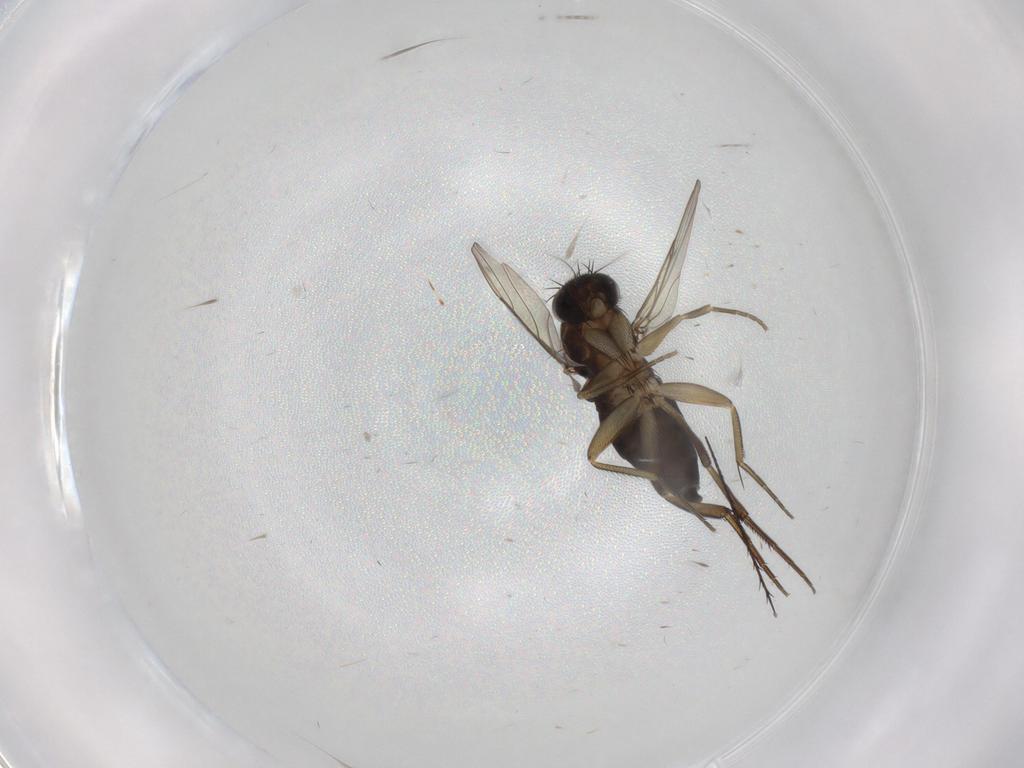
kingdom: Animalia
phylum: Arthropoda
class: Insecta
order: Diptera
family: Phoridae
